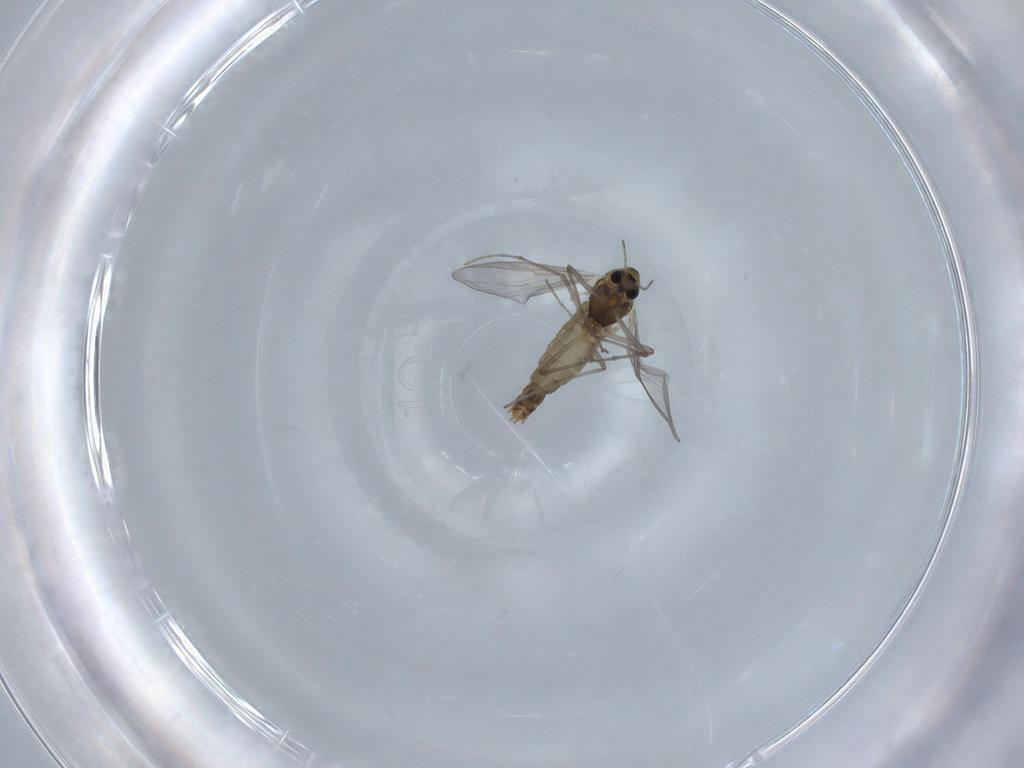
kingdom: Animalia
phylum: Arthropoda
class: Insecta
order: Diptera
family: Chironomidae
